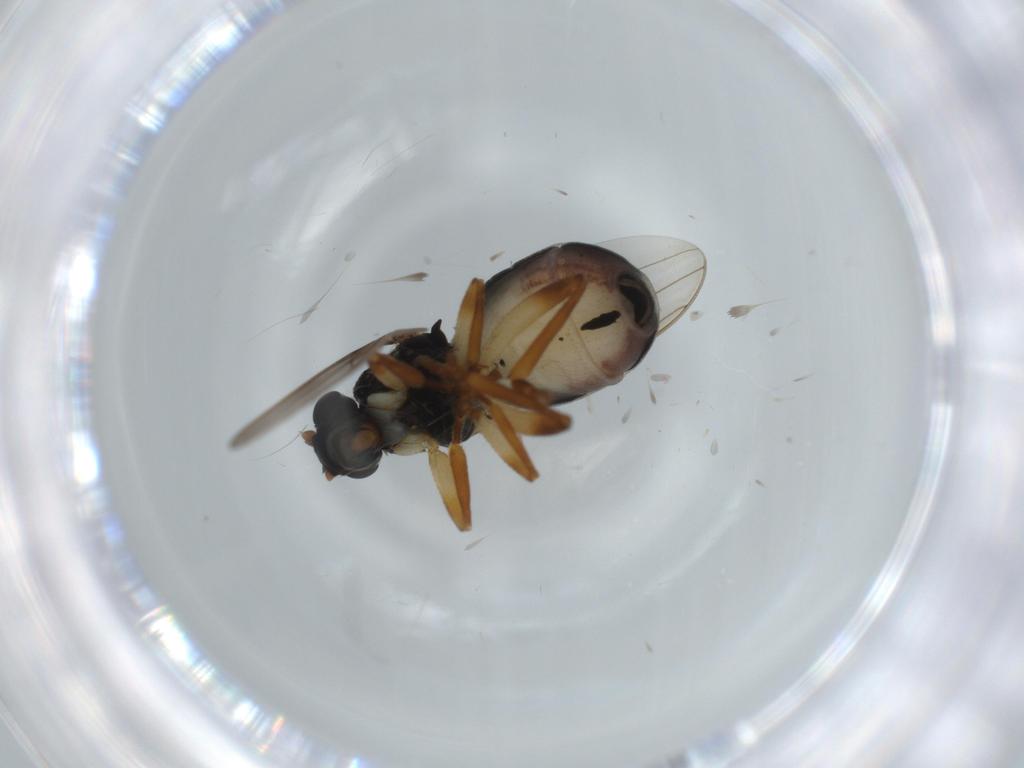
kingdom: Animalia
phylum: Arthropoda
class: Insecta
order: Diptera
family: Sphaeroceridae
